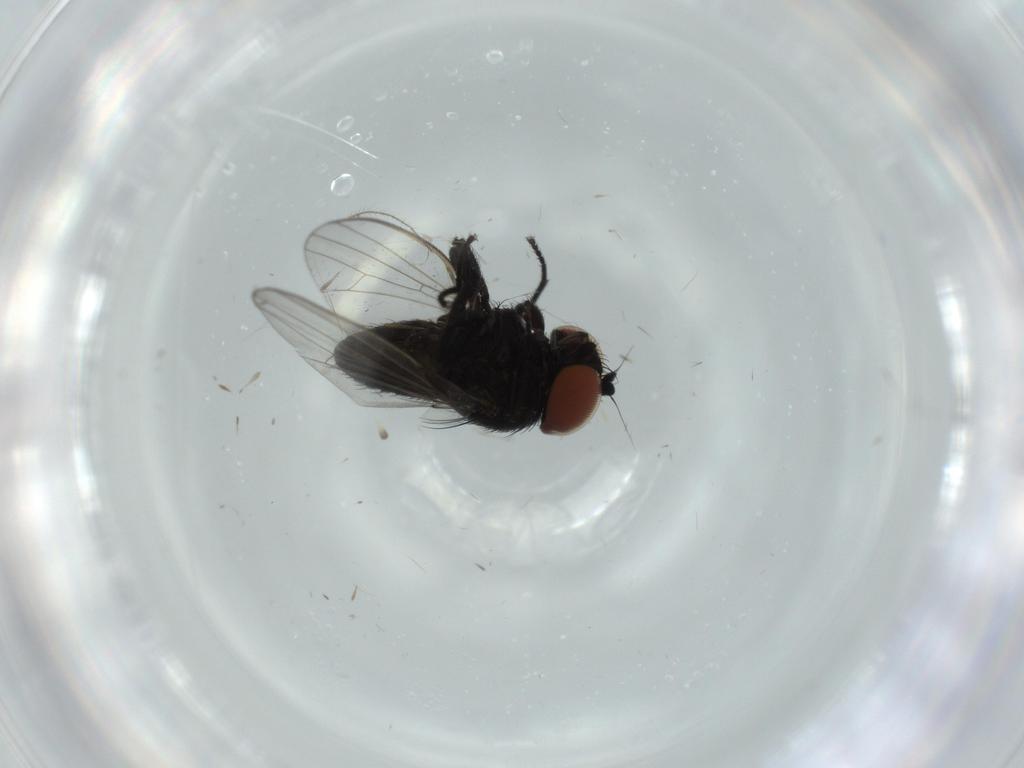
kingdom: Animalia
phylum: Arthropoda
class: Insecta
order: Diptera
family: Milichiidae
